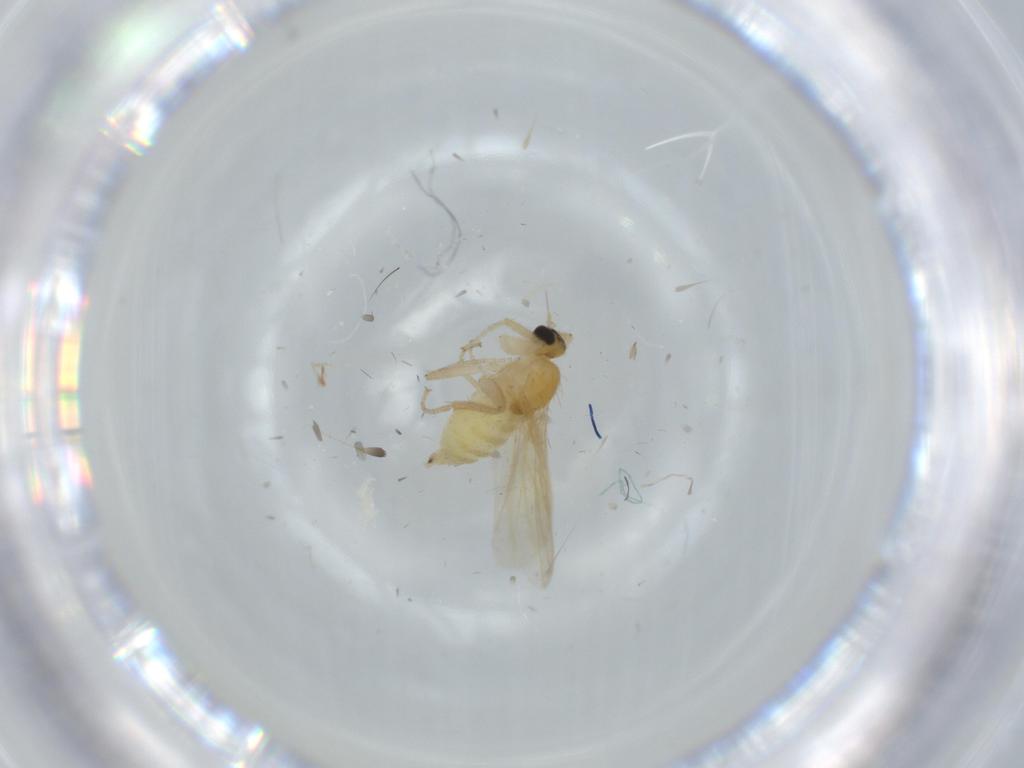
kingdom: Animalia
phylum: Arthropoda
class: Insecta
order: Diptera
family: Hybotidae
